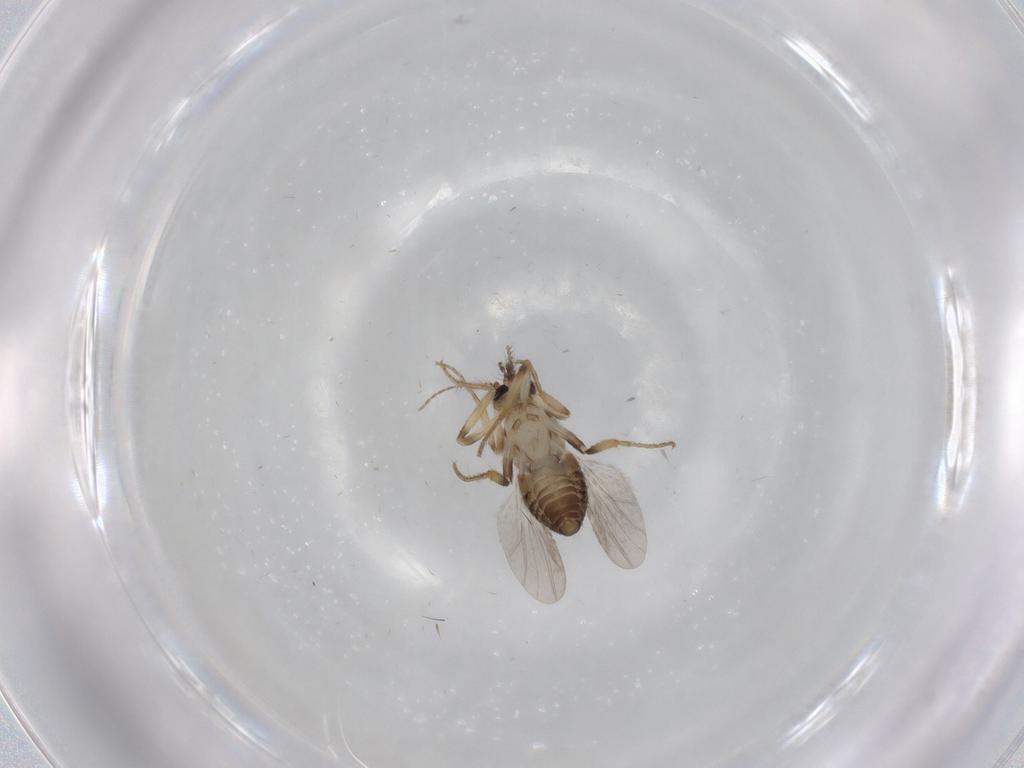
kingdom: Animalia
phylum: Arthropoda
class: Insecta
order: Diptera
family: Ceratopogonidae
